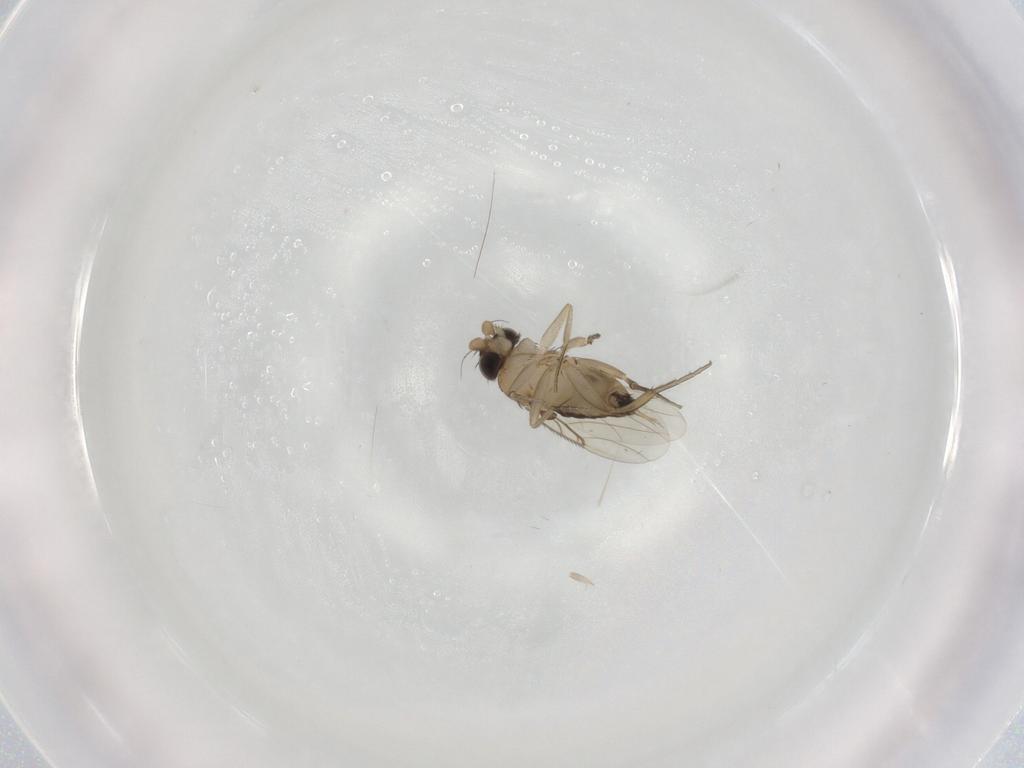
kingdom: Animalia
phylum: Arthropoda
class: Insecta
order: Diptera
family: Phoridae
